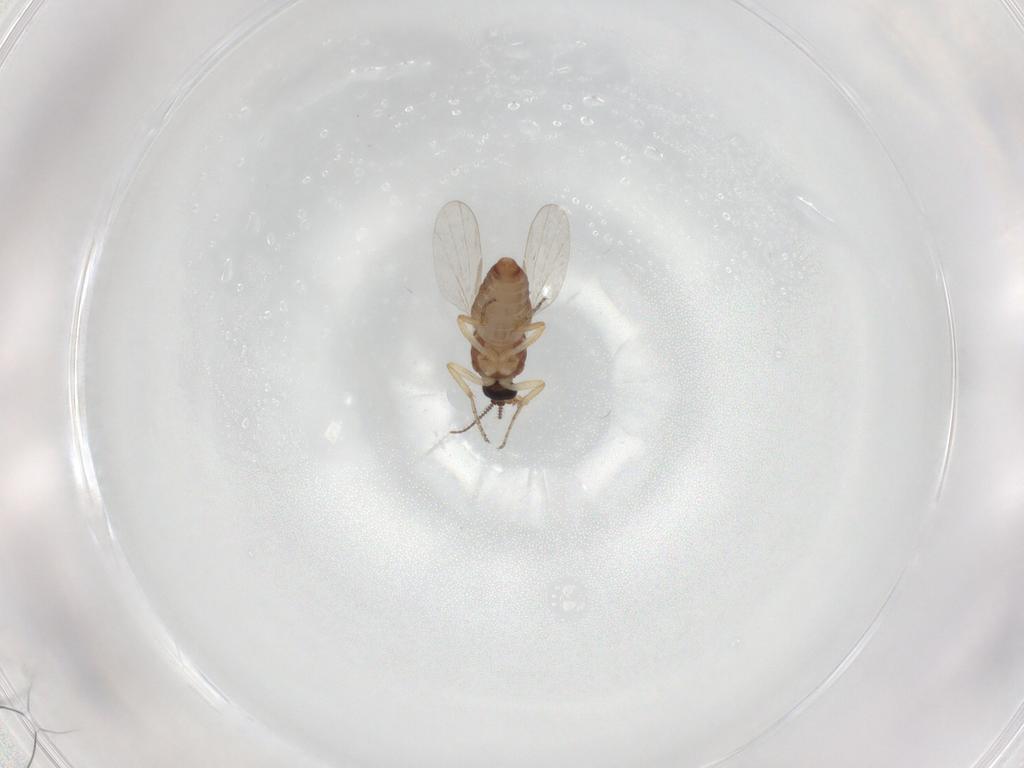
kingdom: Animalia
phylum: Arthropoda
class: Insecta
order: Diptera
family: Ceratopogonidae
